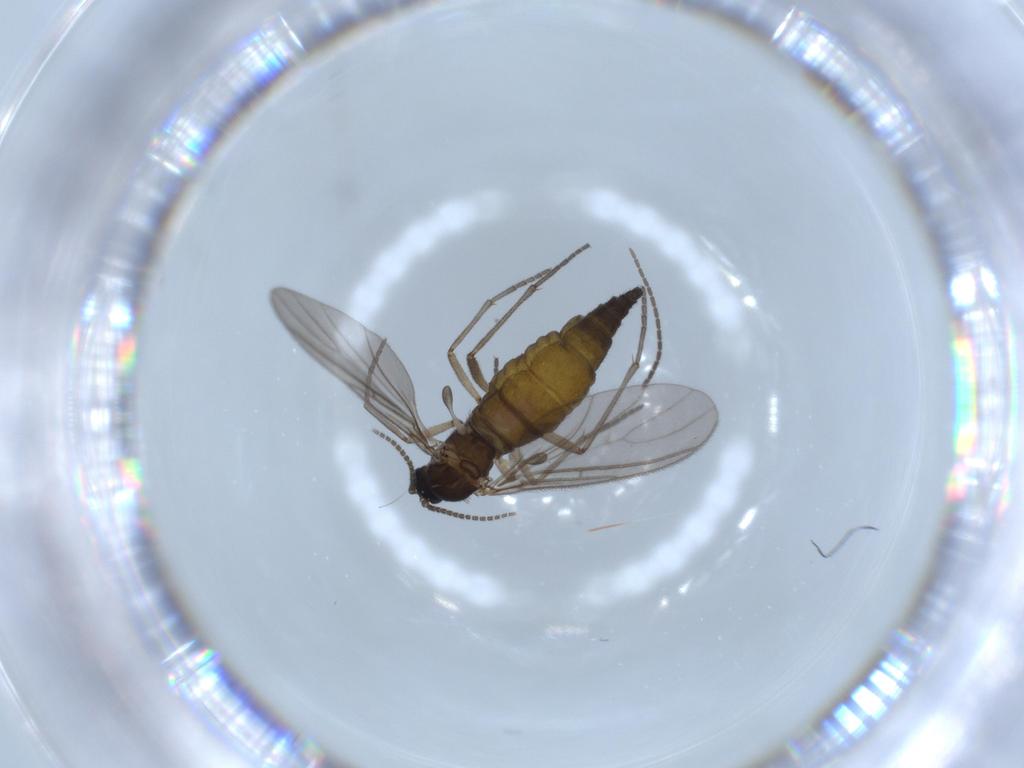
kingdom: Animalia
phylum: Arthropoda
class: Insecta
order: Diptera
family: Sciaridae
